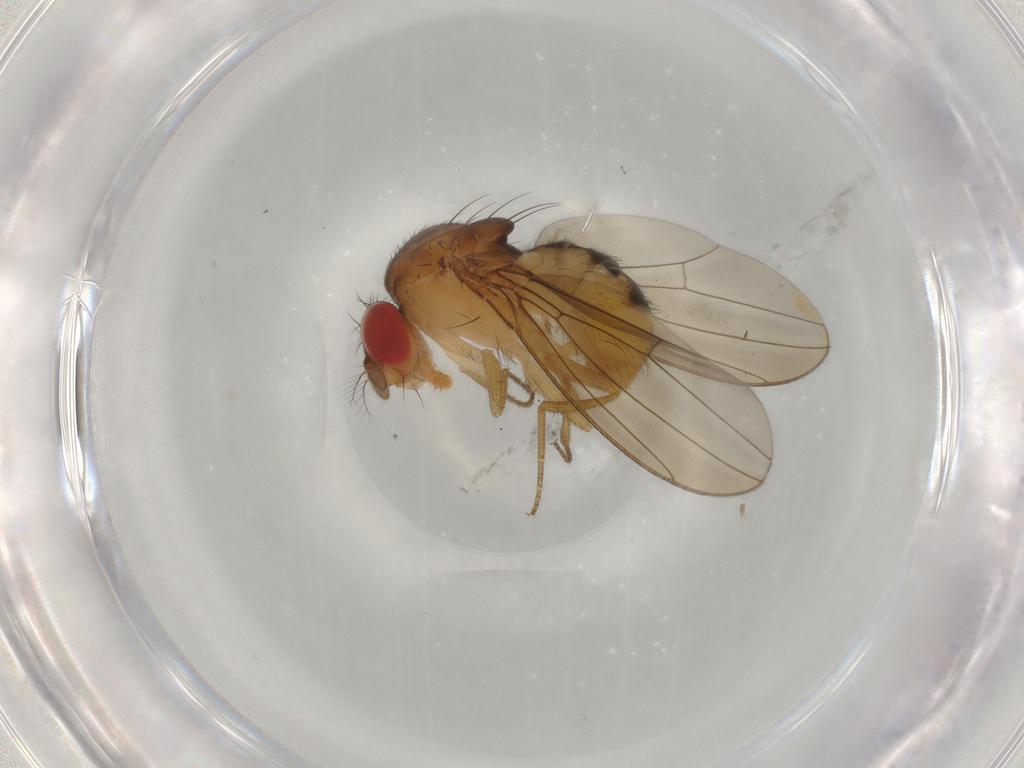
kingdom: Animalia
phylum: Arthropoda
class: Insecta
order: Diptera
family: Drosophilidae
